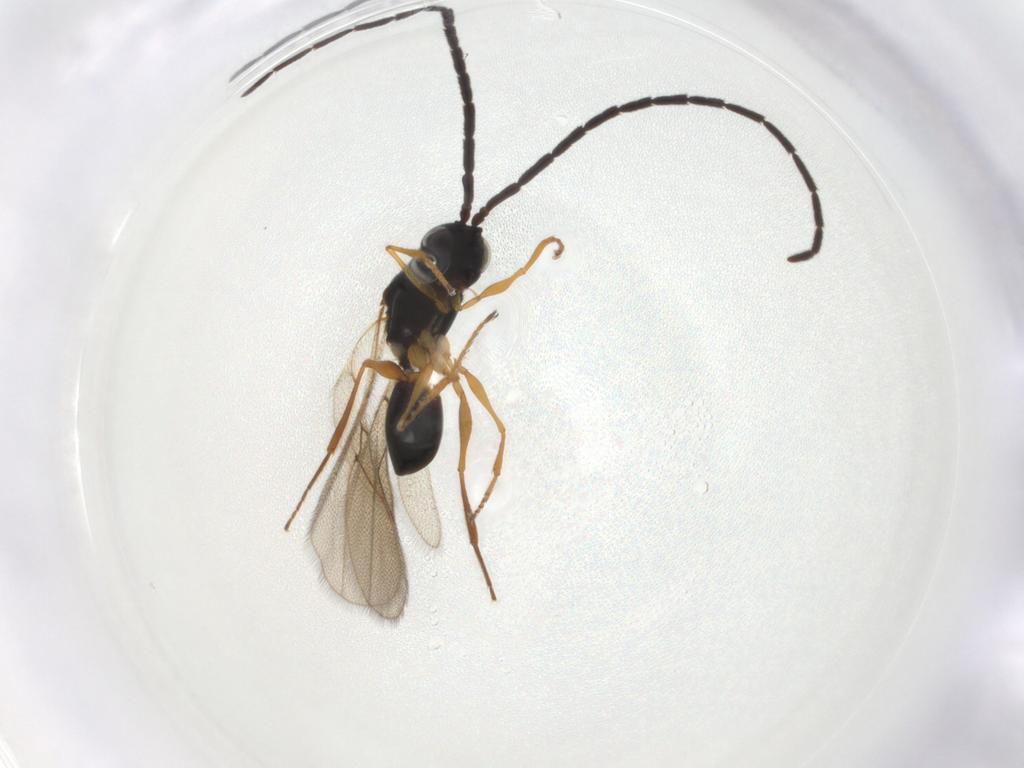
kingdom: Animalia
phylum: Arthropoda
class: Insecta
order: Hymenoptera
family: Figitidae
